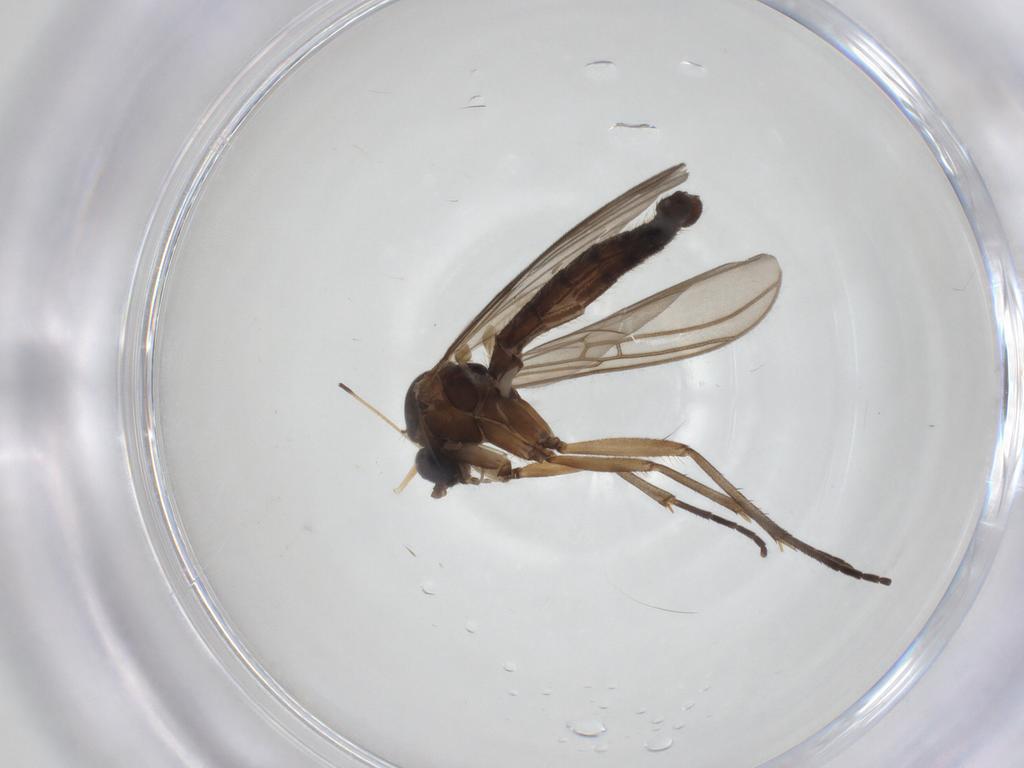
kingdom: Animalia
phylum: Arthropoda
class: Insecta
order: Diptera
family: Mycetophilidae
